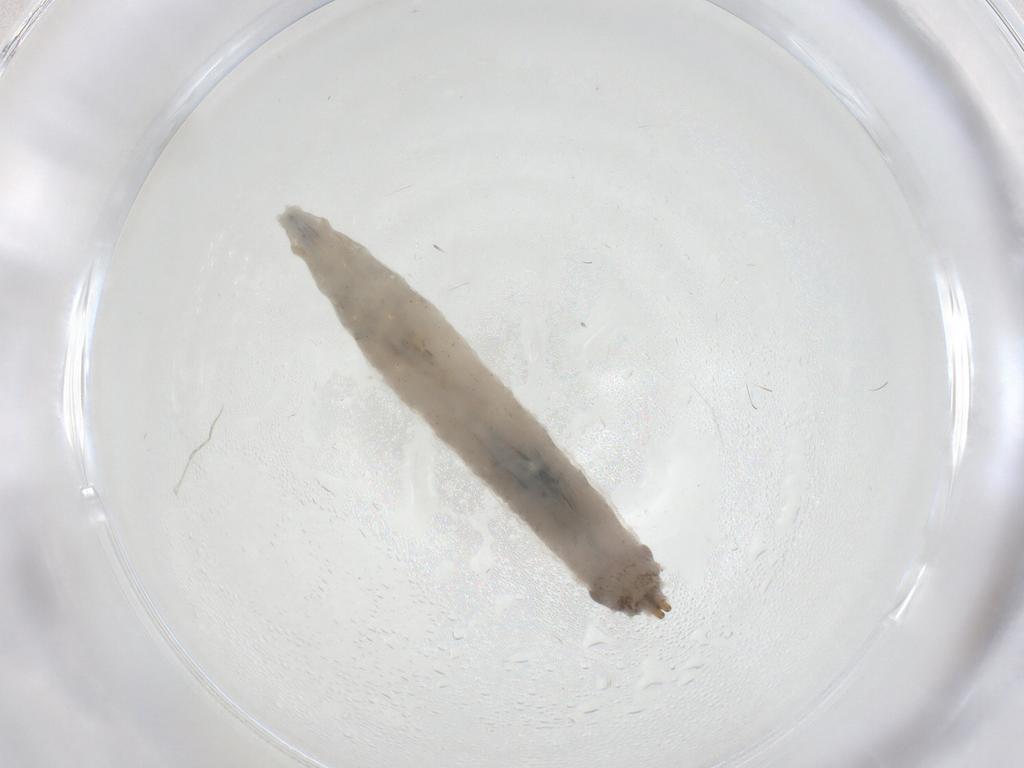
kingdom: Animalia
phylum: Arthropoda
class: Insecta
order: Diptera
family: Drosophilidae
